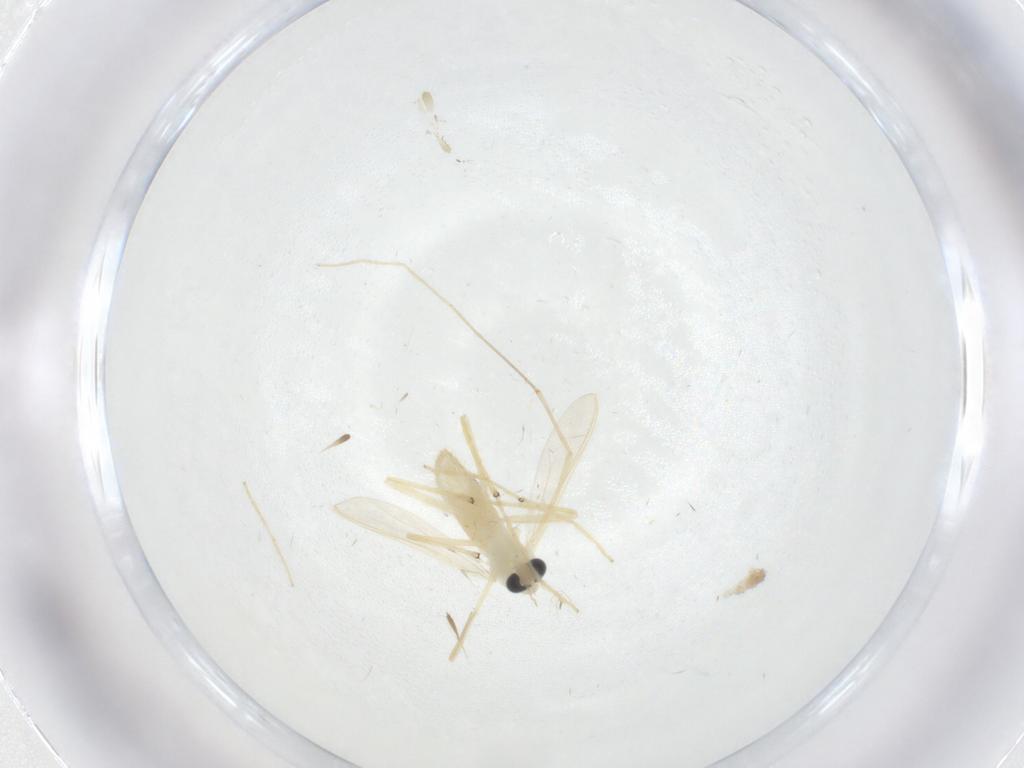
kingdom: Animalia
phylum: Arthropoda
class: Insecta
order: Diptera
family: Chironomidae
